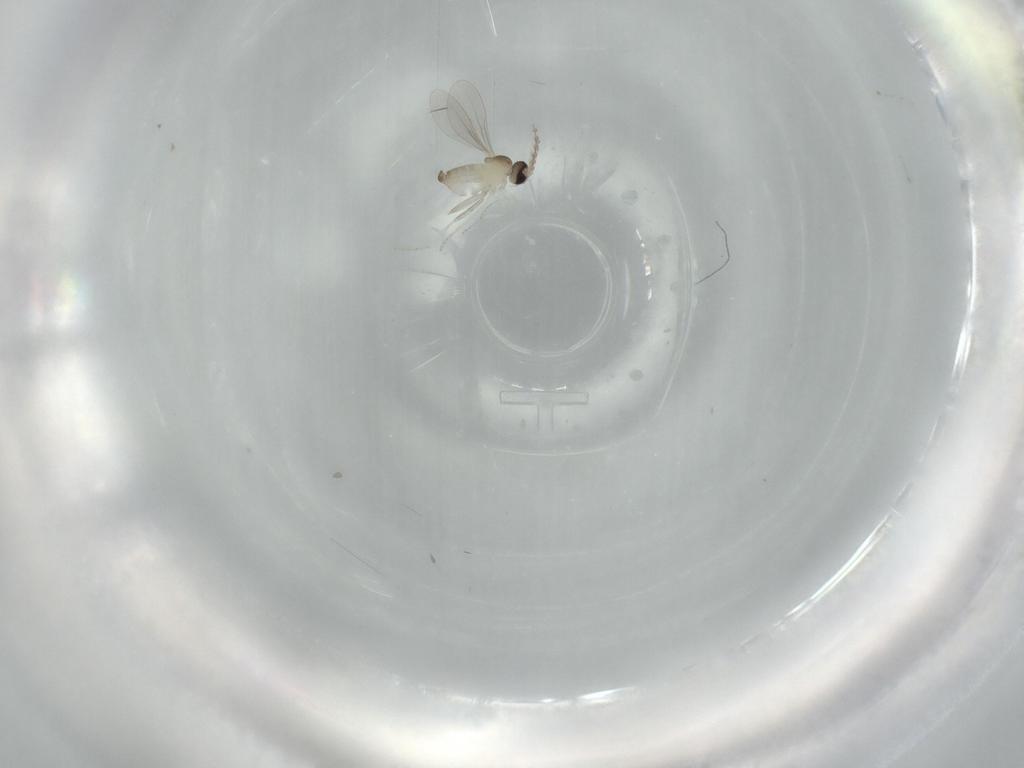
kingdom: Animalia
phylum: Arthropoda
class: Insecta
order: Diptera
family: Cecidomyiidae
